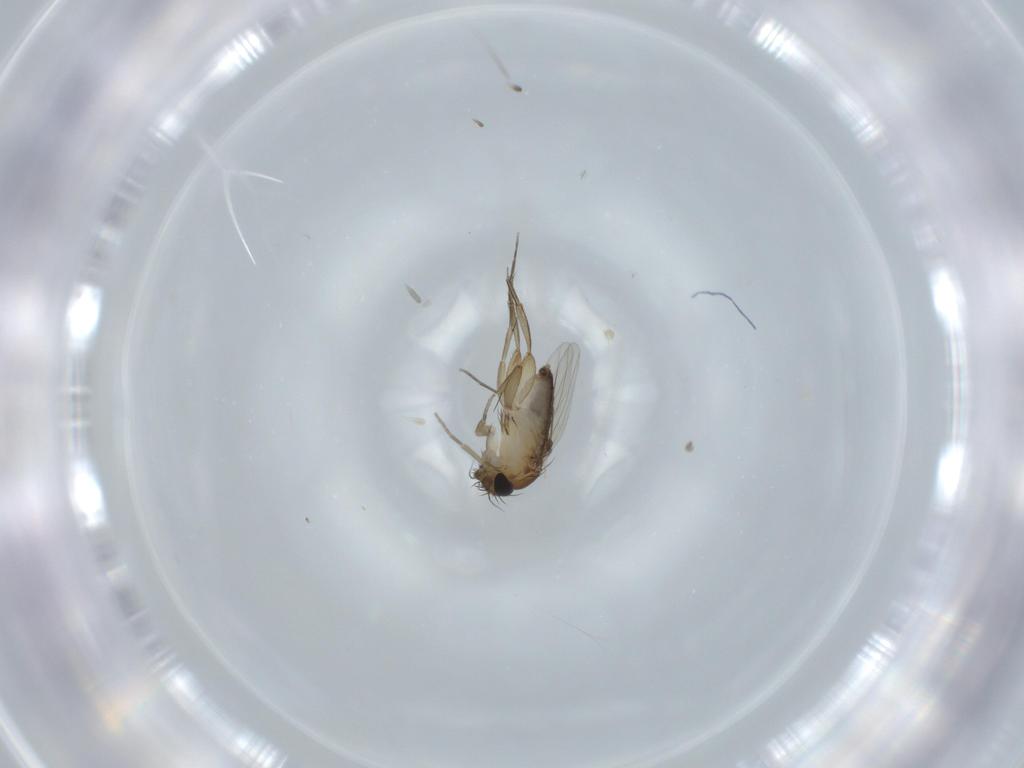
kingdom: Animalia
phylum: Arthropoda
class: Insecta
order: Diptera
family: Phoridae
